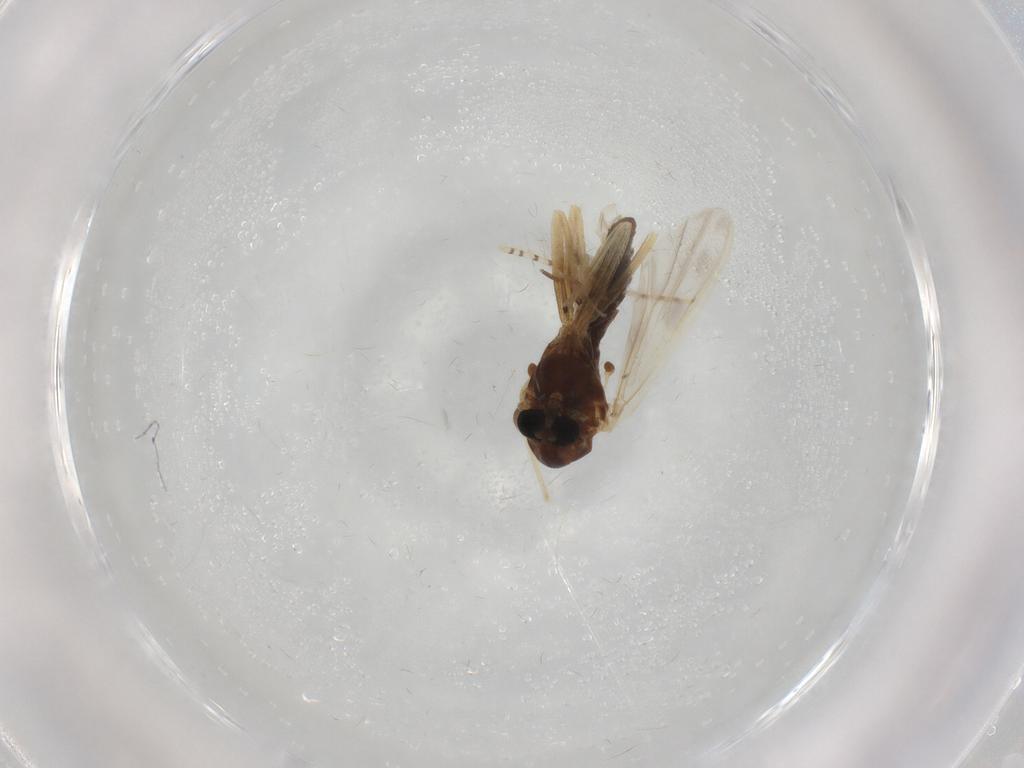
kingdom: Animalia
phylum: Arthropoda
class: Insecta
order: Diptera
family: Chironomidae
